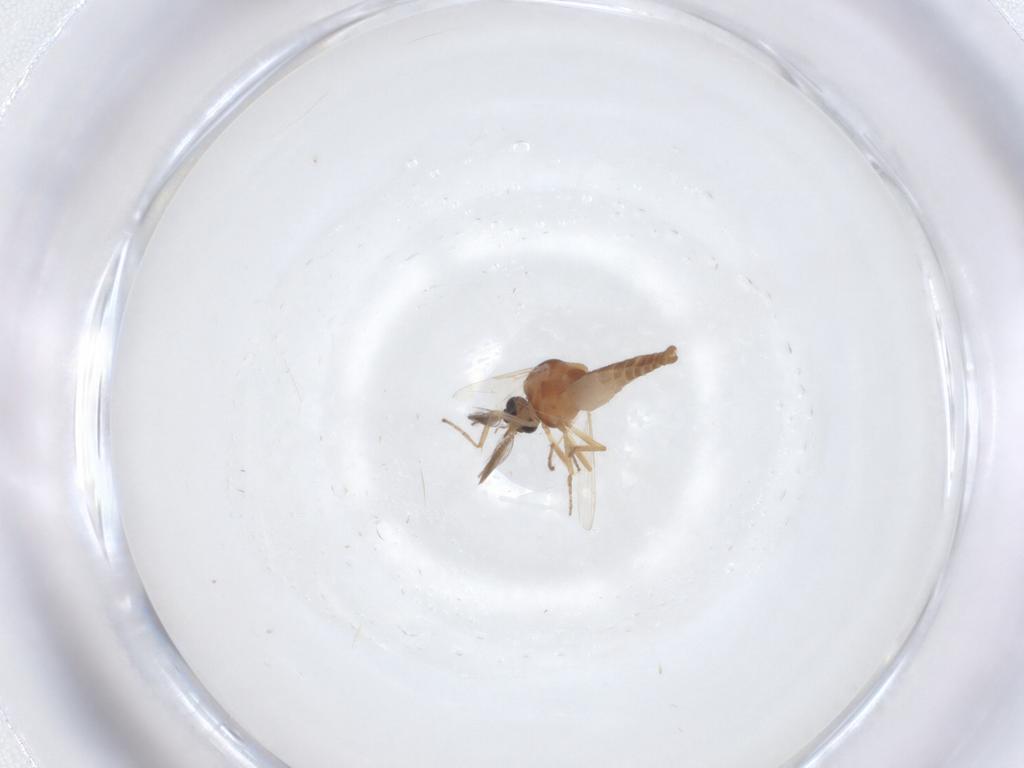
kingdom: Animalia
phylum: Arthropoda
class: Insecta
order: Diptera
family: Ceratopogonidae
